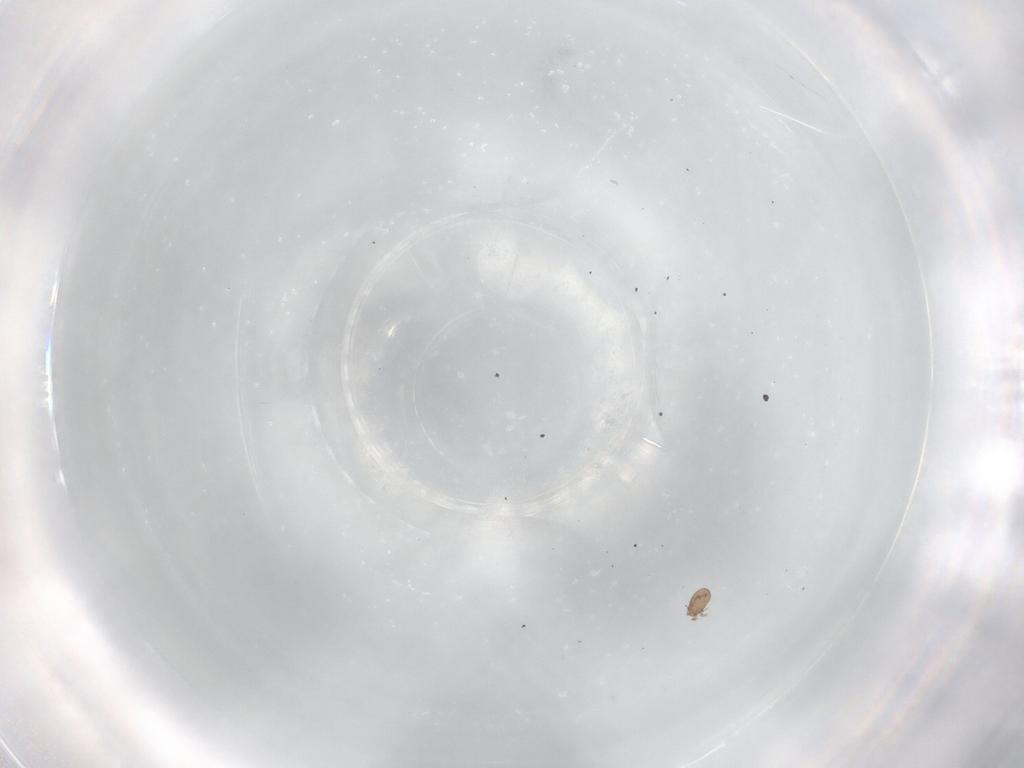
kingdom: Animalia
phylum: Arthropoda
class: Arachnida
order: Sarcoptiformes
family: Eremaeidae
